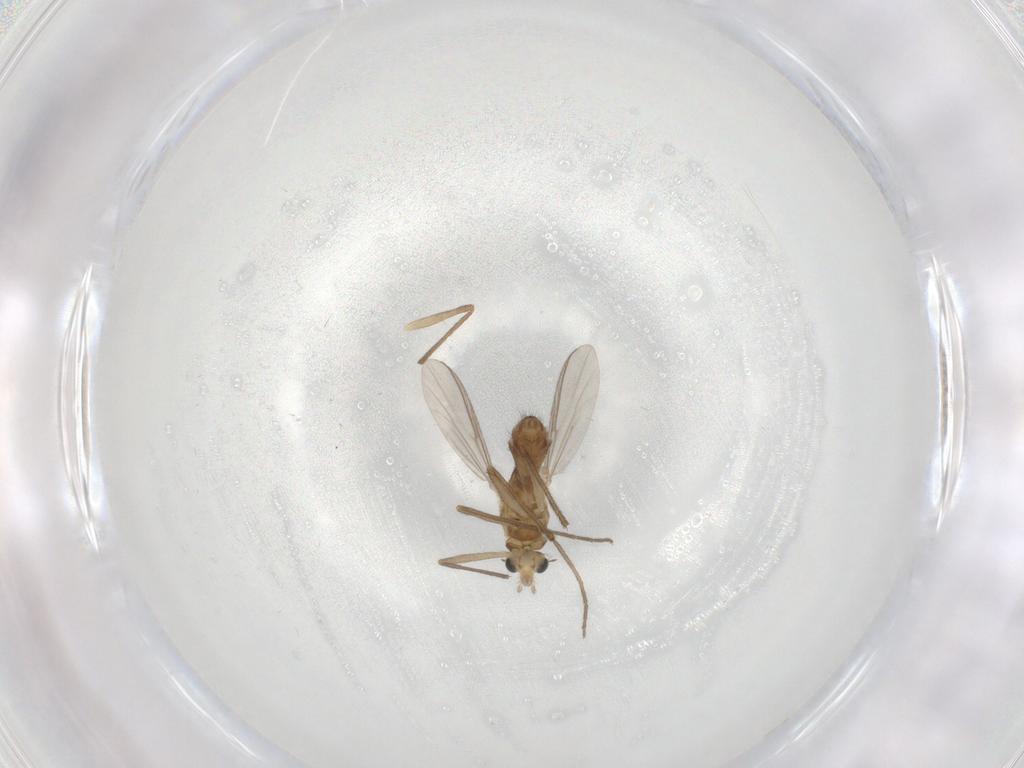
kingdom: Animalia
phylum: Arthropoda
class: Insecta
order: Diptera
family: Chironomidae
